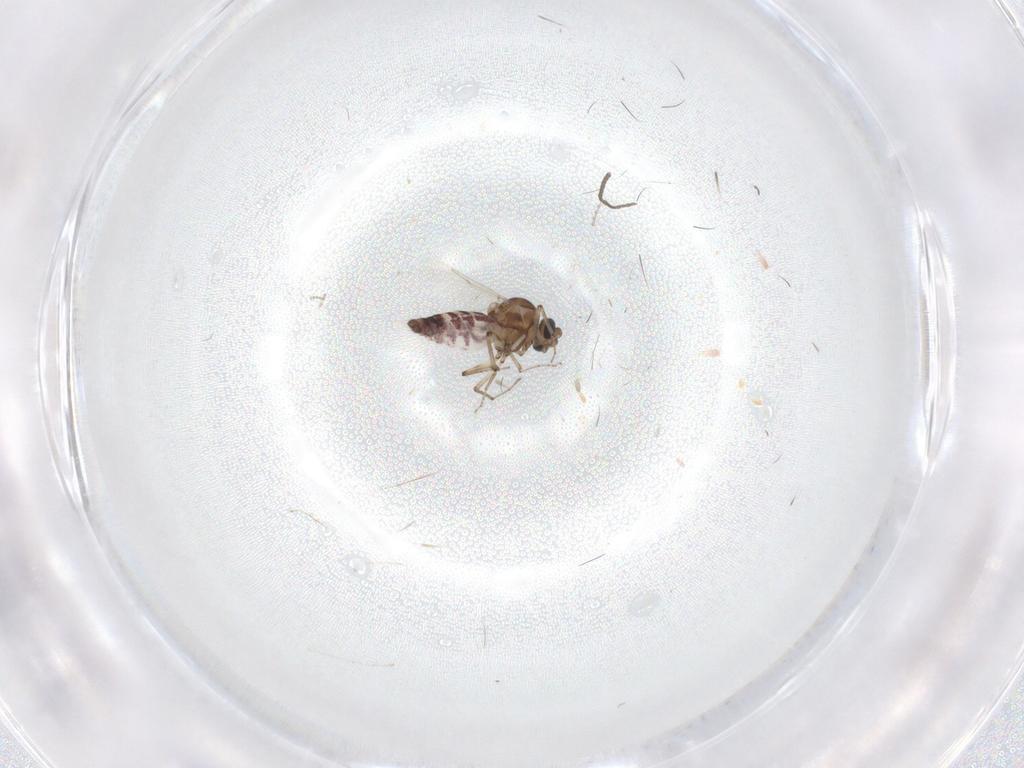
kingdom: Animalia
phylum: Arthropoda
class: Insecta
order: Diptera
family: Ceratopogonidae
